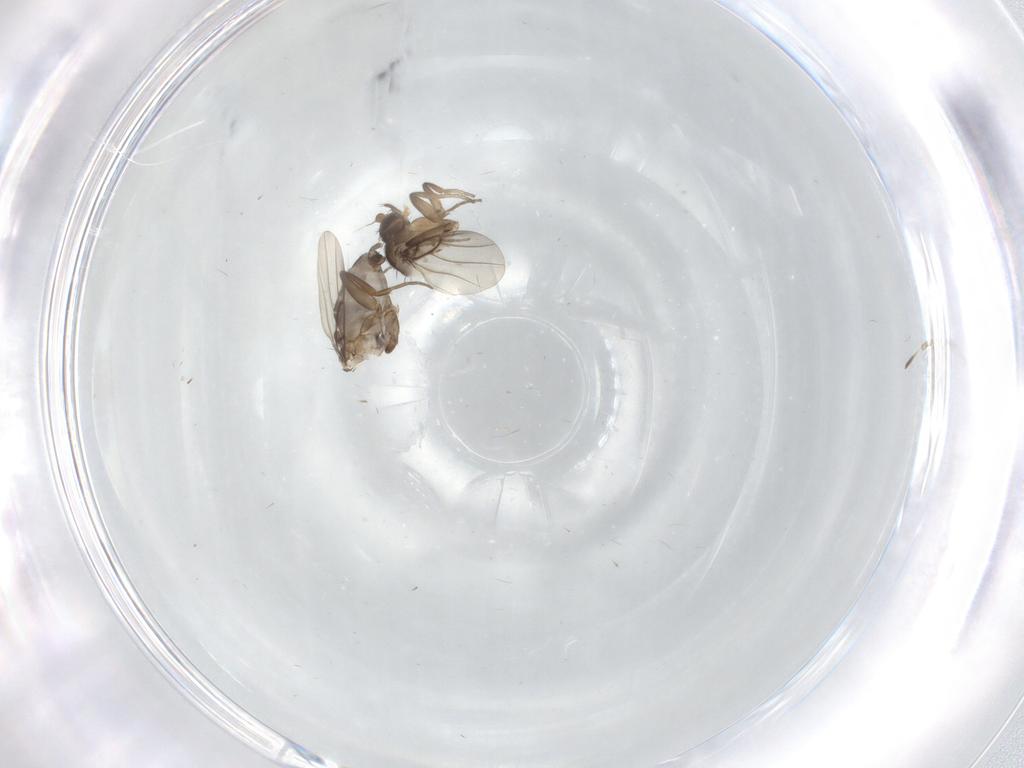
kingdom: Animalia
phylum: Arthropoda
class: Insecta
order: Diptera
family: Phoridae
